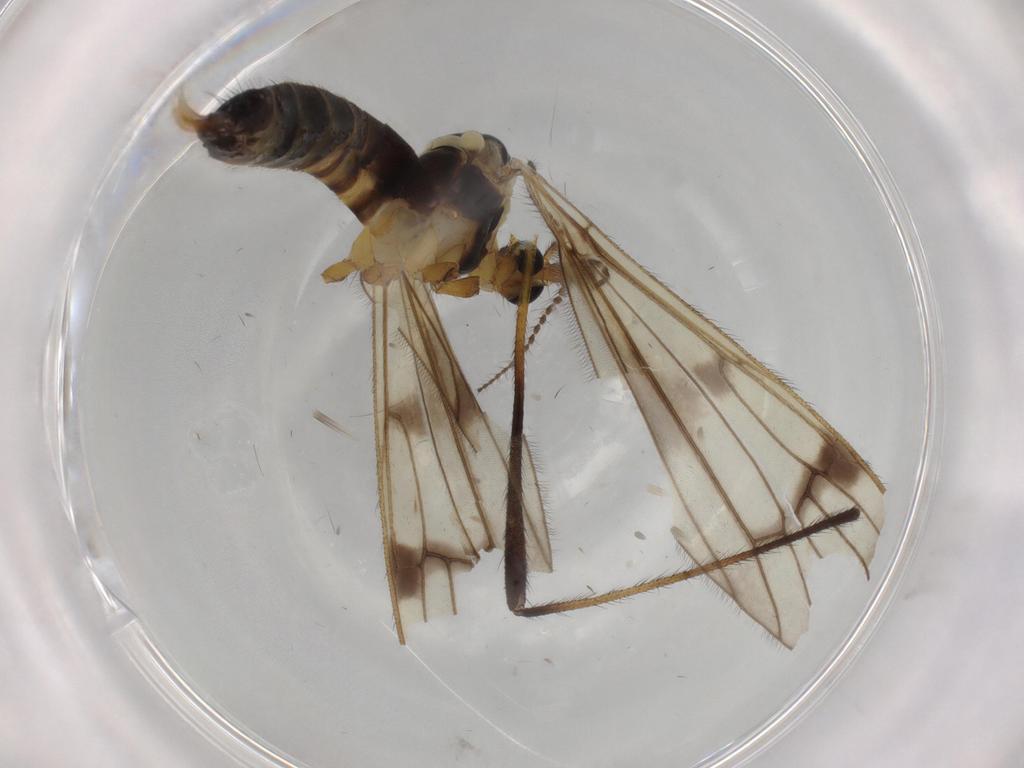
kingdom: Animalia
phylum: Arthropoda
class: Insecta
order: Diptera
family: Limoniidae
